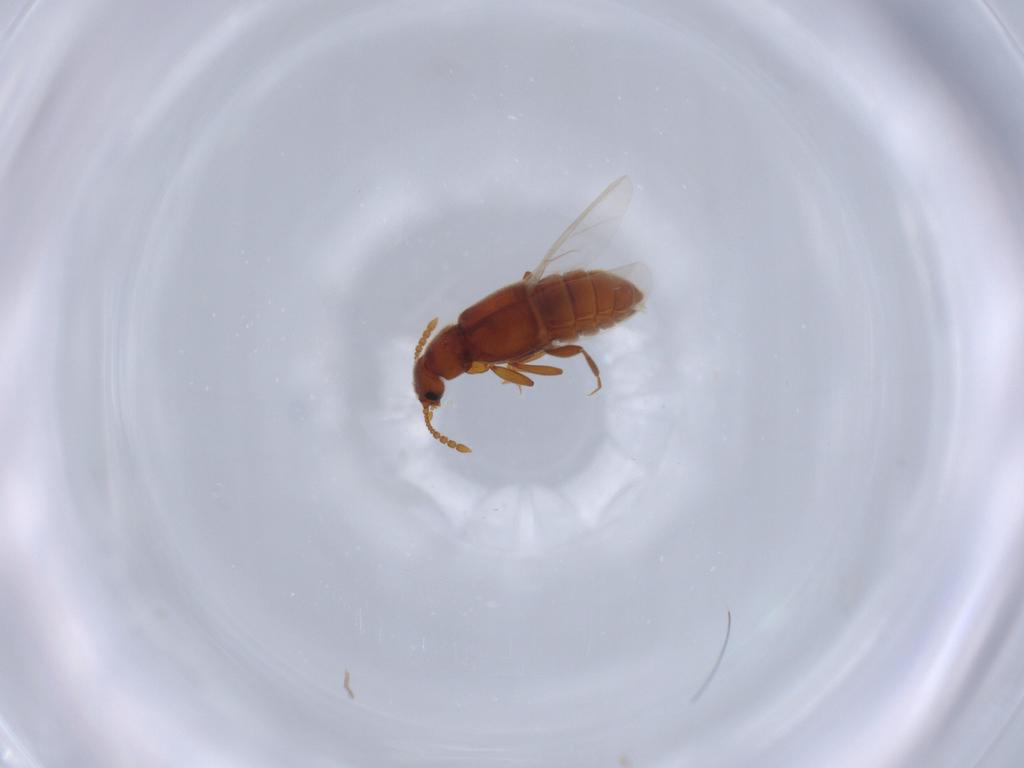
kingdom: Animalia
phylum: Arthropoda
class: Insecta
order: Coleoptera
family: Staphylinidae
